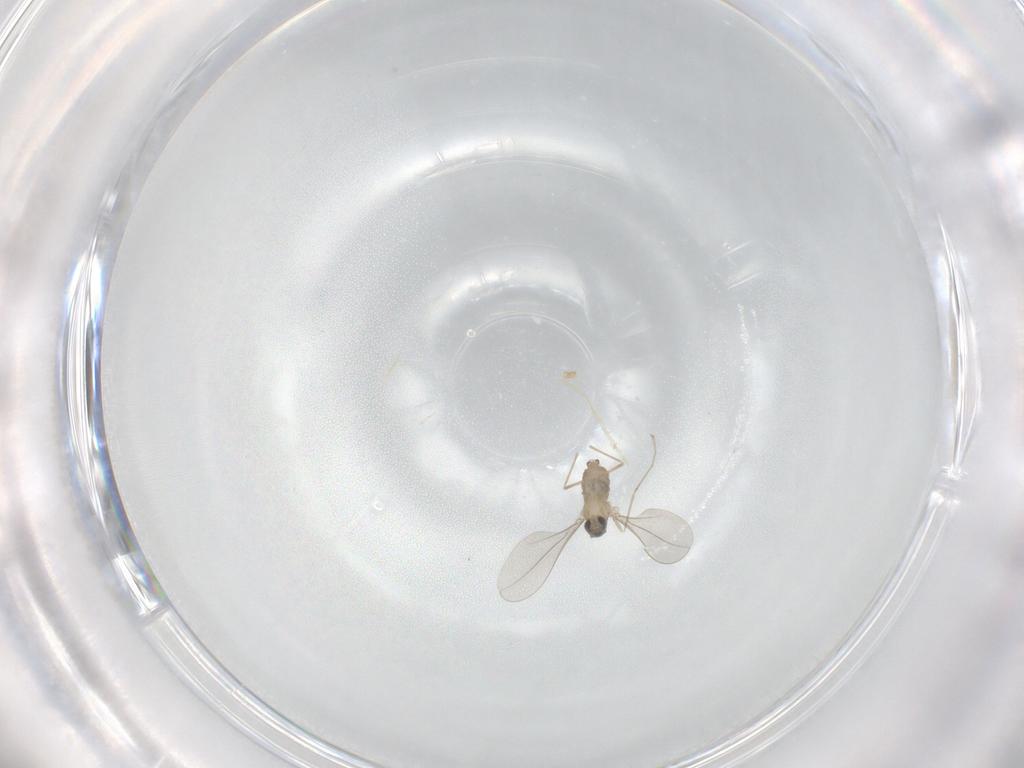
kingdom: Animalia
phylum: Arthropoda
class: Insecta
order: Diptera
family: Cecidomyiidae
